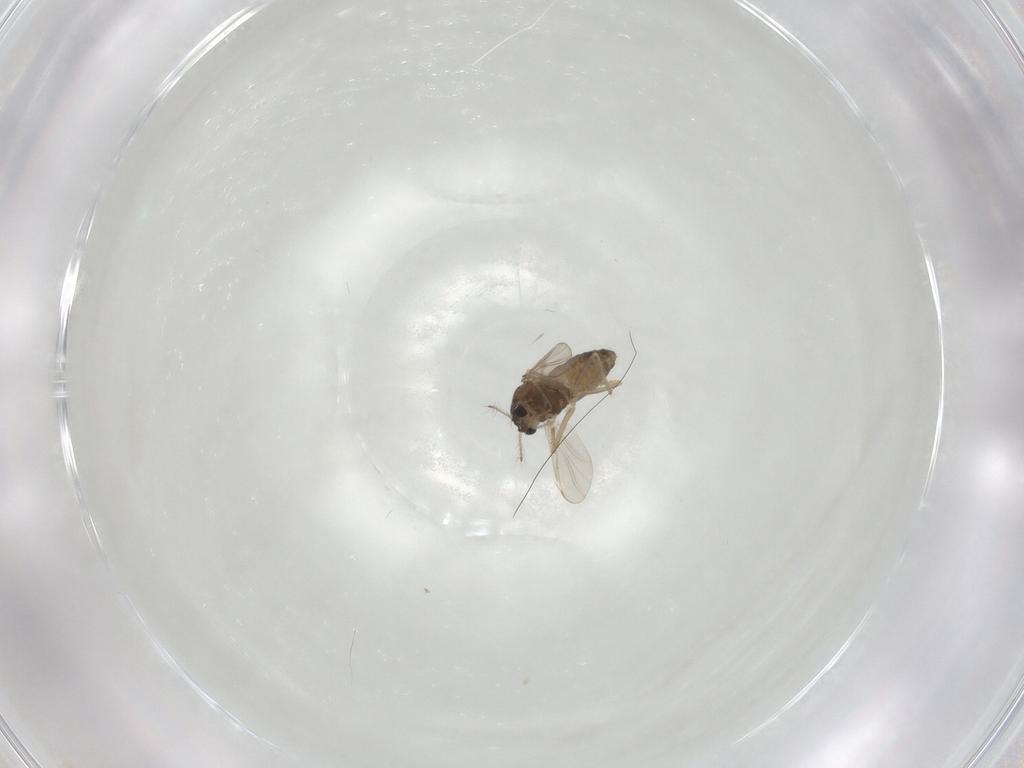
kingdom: Animalia
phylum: Arthropoda
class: Insecta
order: Diptera
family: Chironomidae
